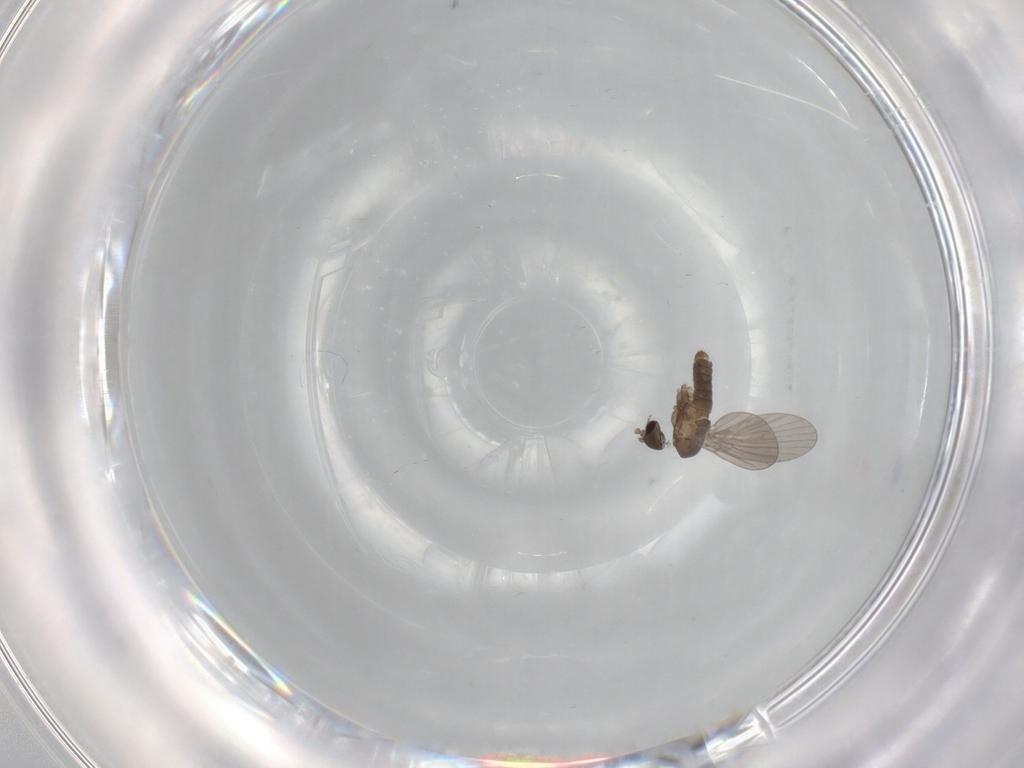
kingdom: Animalia
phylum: Arthropoda
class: Insecta
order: Diptera
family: Cecidomyiidae
